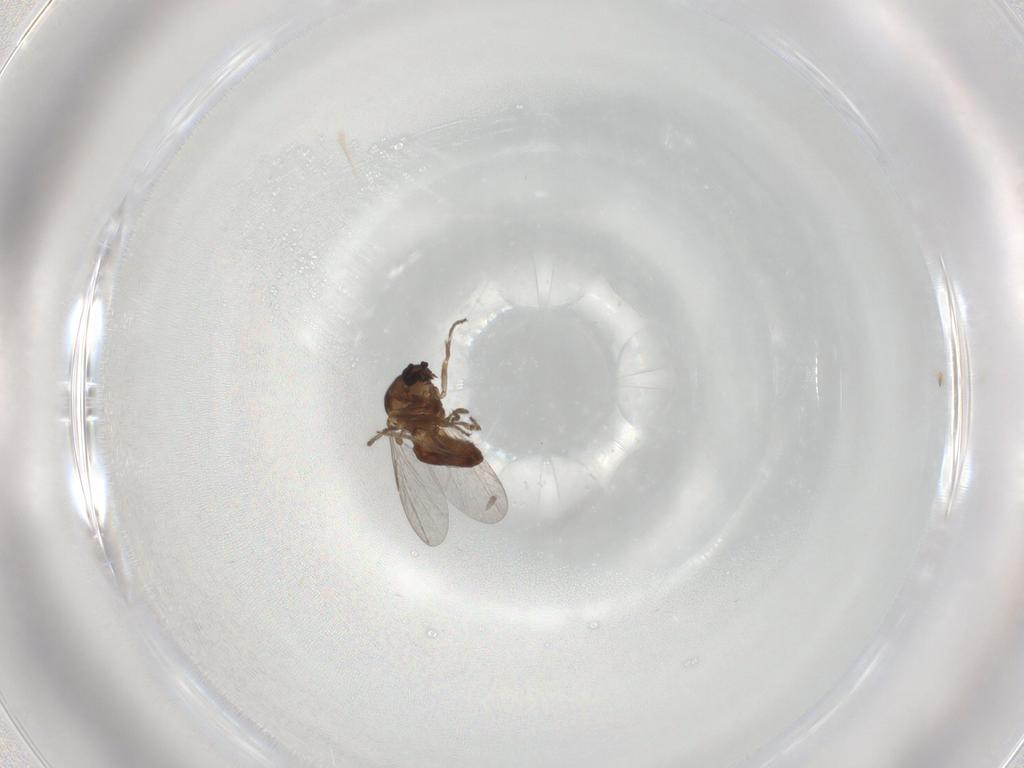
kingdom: Animalia
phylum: Arthropoda
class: Insecta
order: Diptera
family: Ceratopogonidae
